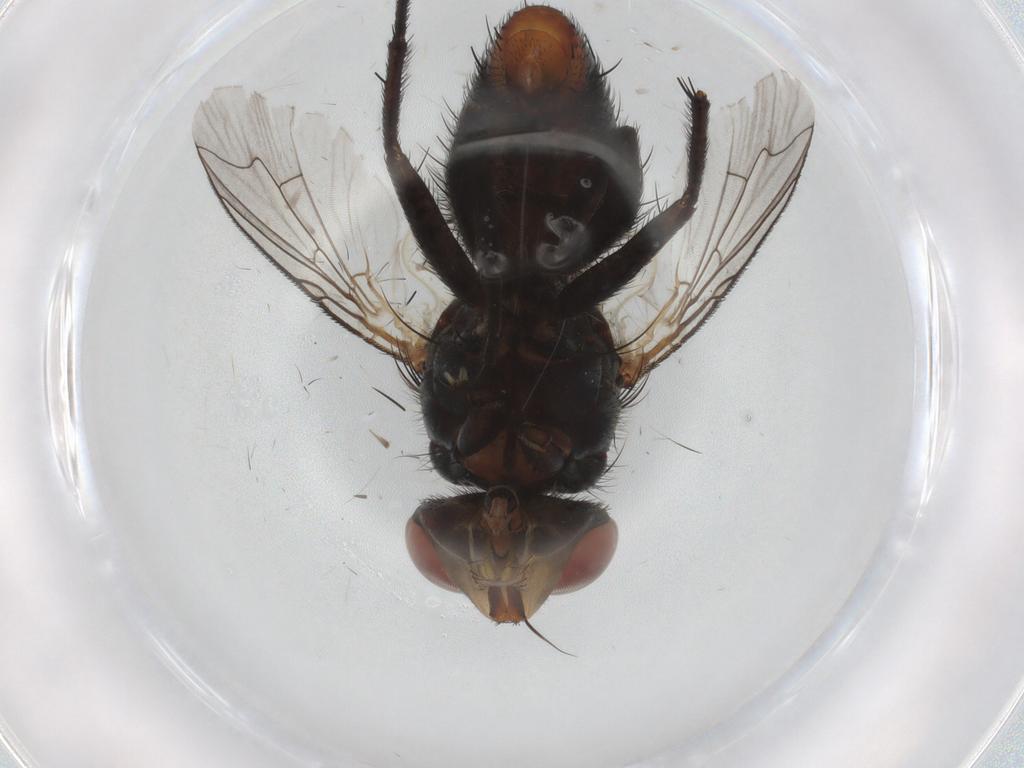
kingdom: Animalia
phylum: Arthropoda
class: Insecta
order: Diptera
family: Sarcophagidae
